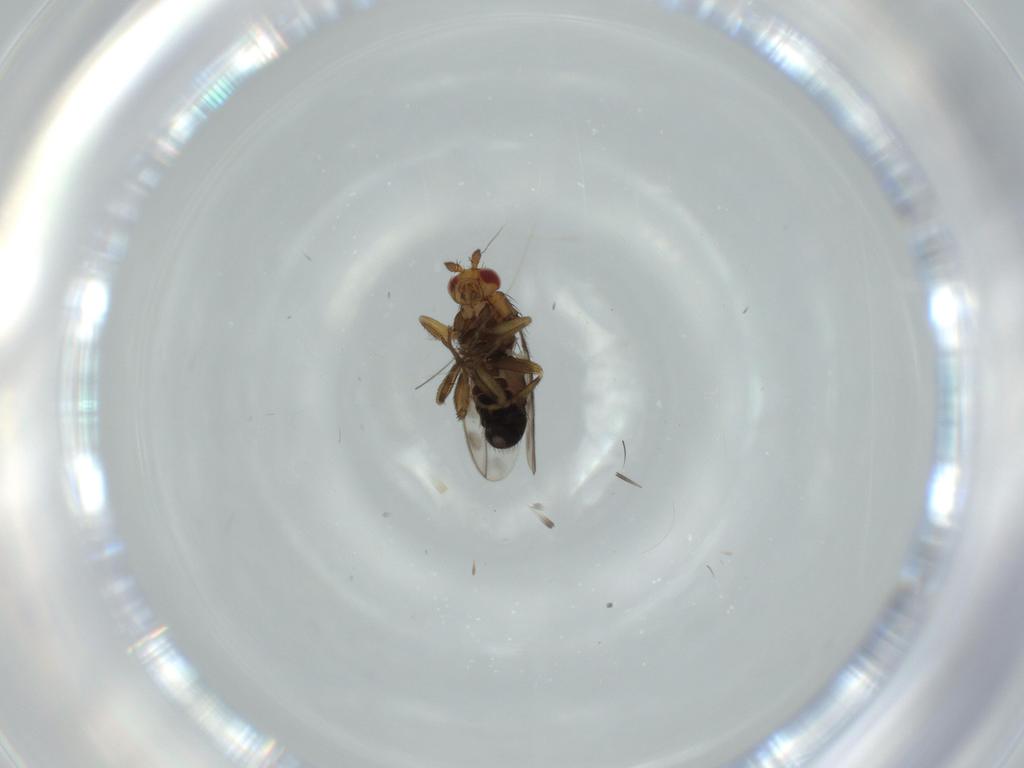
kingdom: Animalia
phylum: Arthropoda
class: Insecta
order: Diptera
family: Sphaeroceridae
